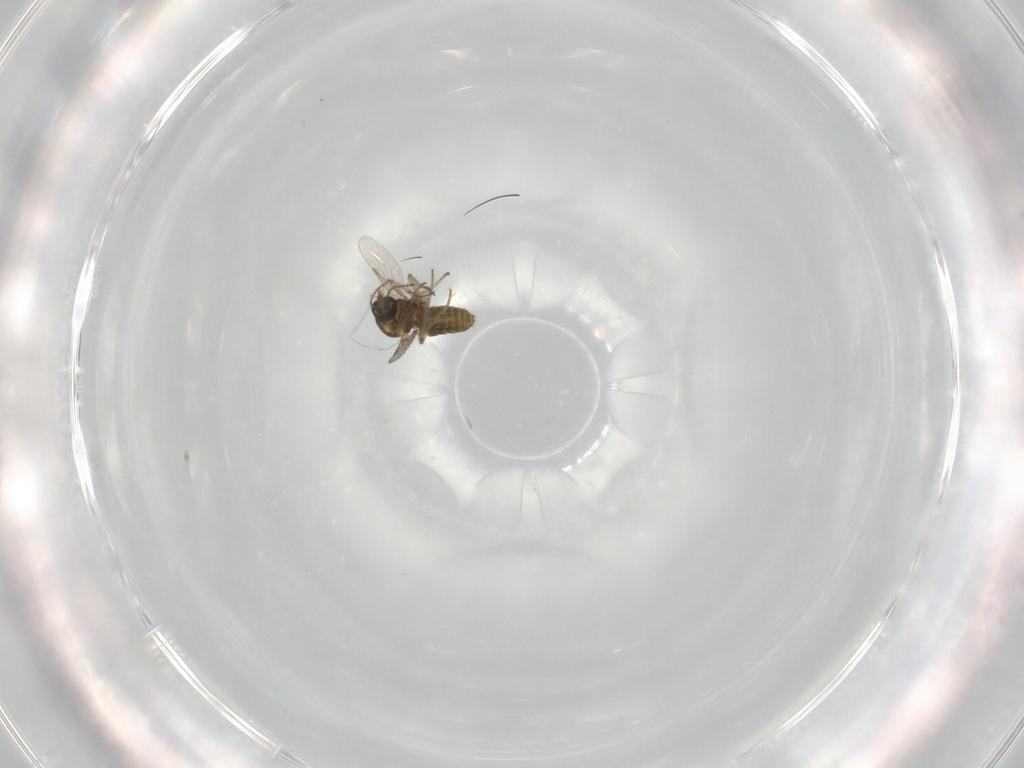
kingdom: Animalia
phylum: Arthropoda
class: Insecta
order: Diptera
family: Ceratopogonidae
